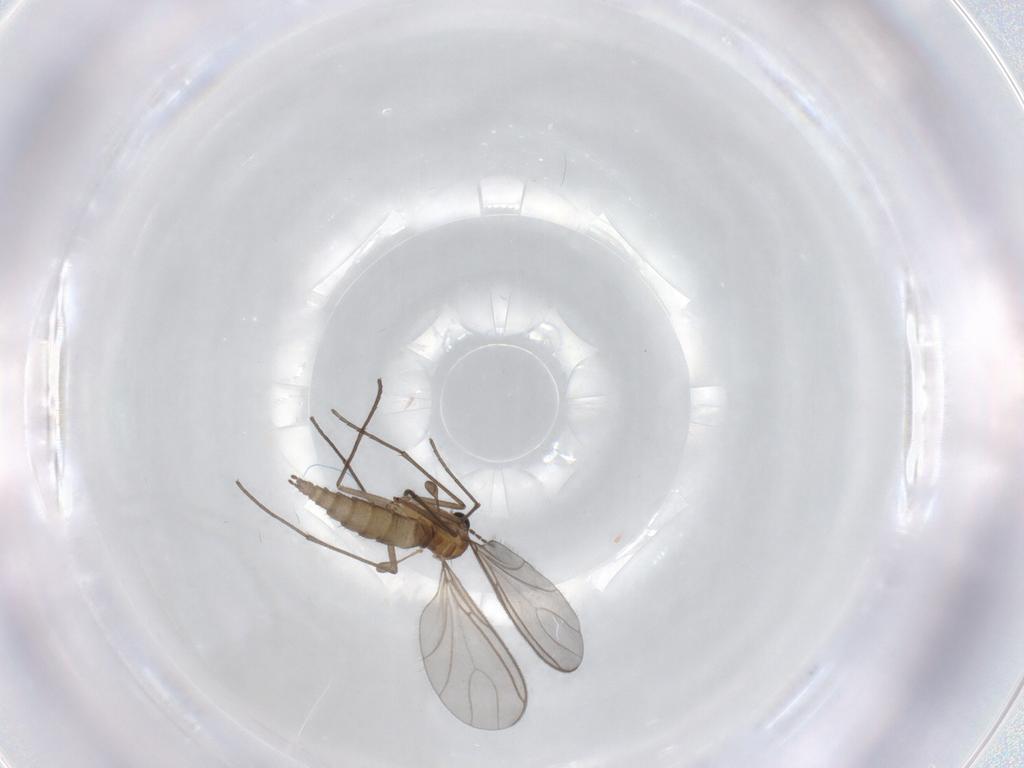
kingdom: Animalia
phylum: Arthropoda
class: Insecta
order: Diptera
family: Sciaridae
